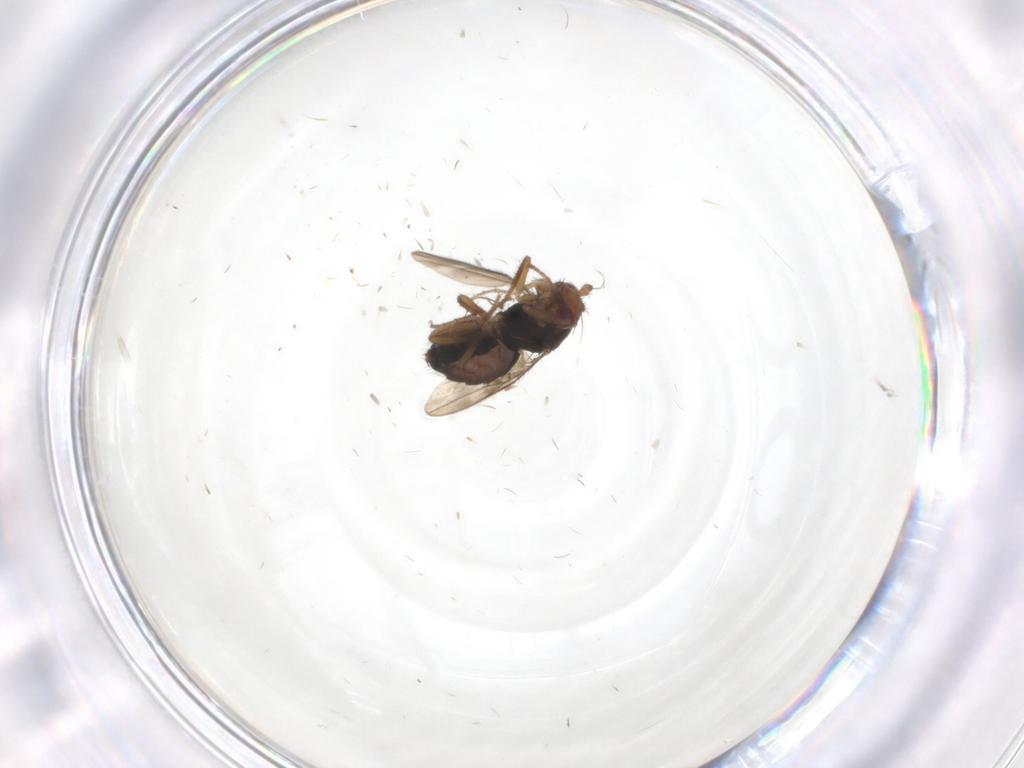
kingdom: Animalia
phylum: Arthropoda
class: Insecta
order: Diptera
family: Sphaeroceridae
